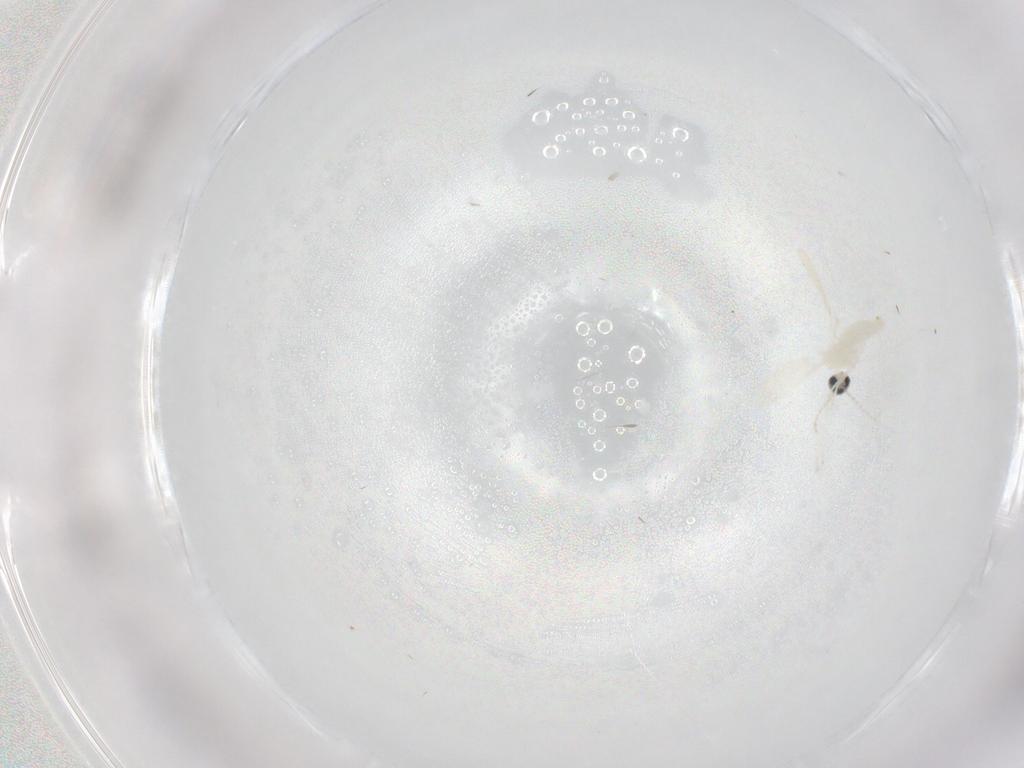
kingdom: Animalia
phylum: Arthropoda
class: Insecta
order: Diptera
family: Cecidomyiidae
